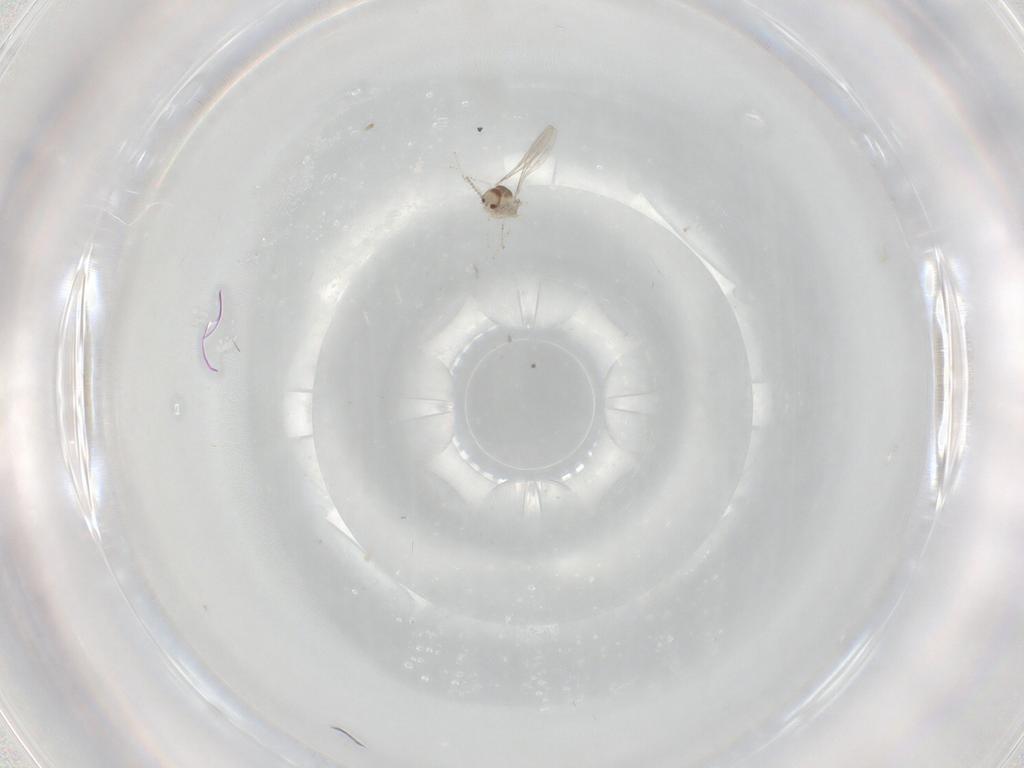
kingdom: Animalia
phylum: Arthropoda
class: Insecta
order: Diptera
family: Cecidomyiidae
